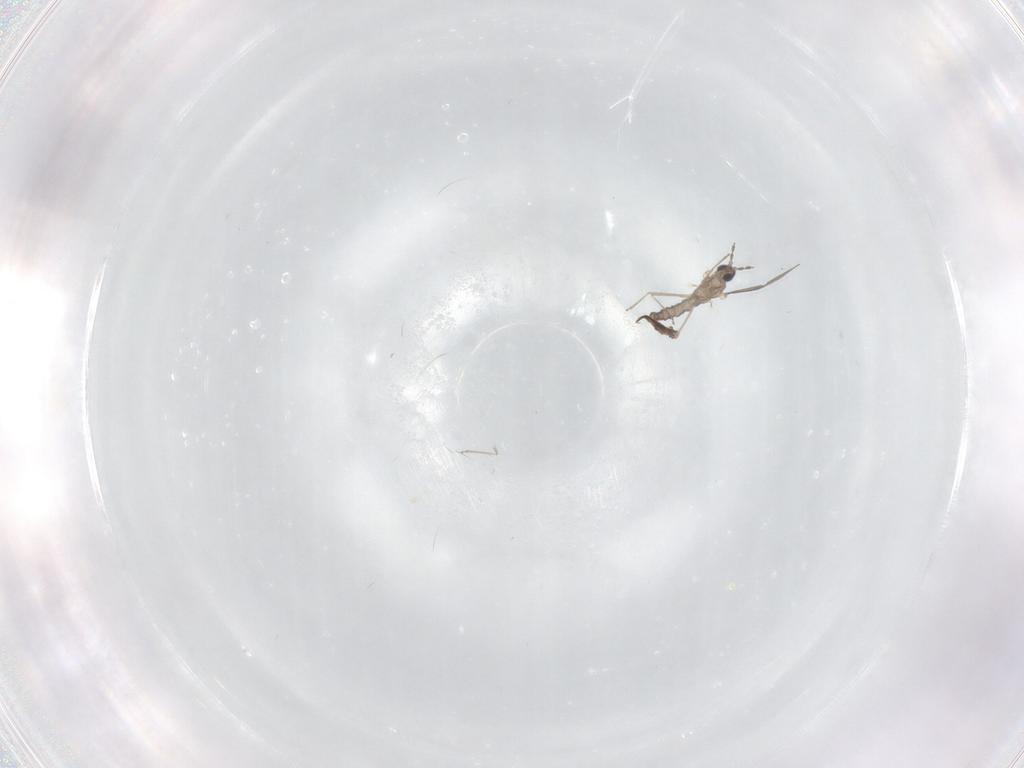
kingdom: Animalia
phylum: Arthropoda
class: Insecta
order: Diptera
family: Cecidomyiidae
